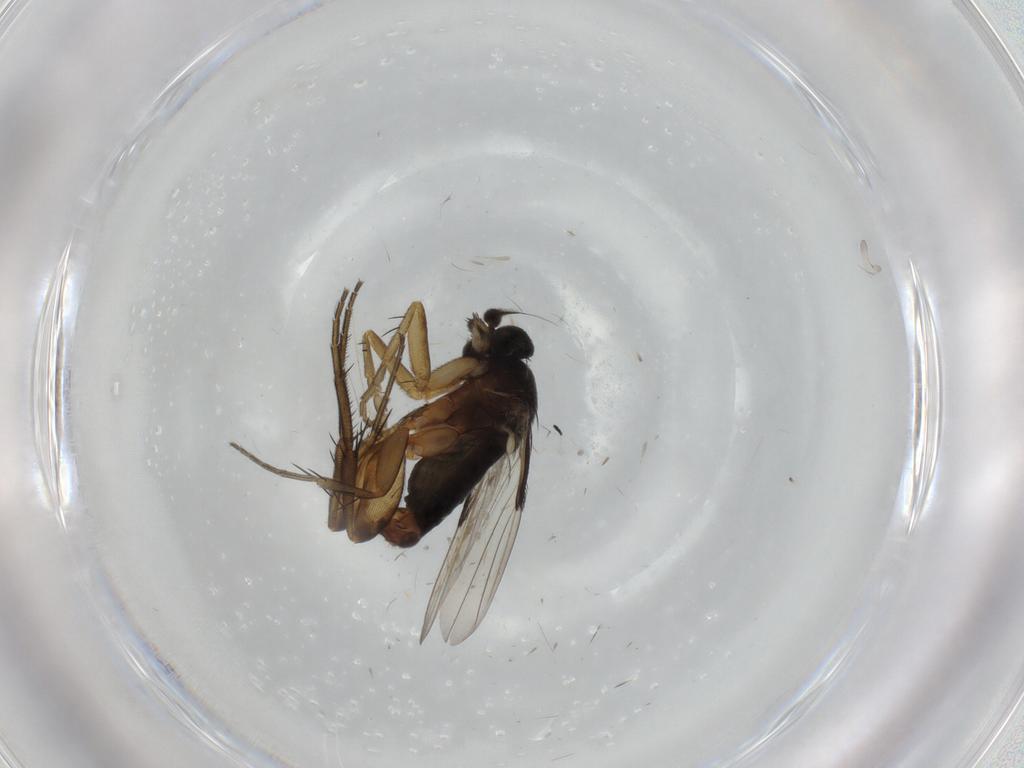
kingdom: Animalia
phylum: Arthropoda
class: Insecta
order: Diptera
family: Phoridae
